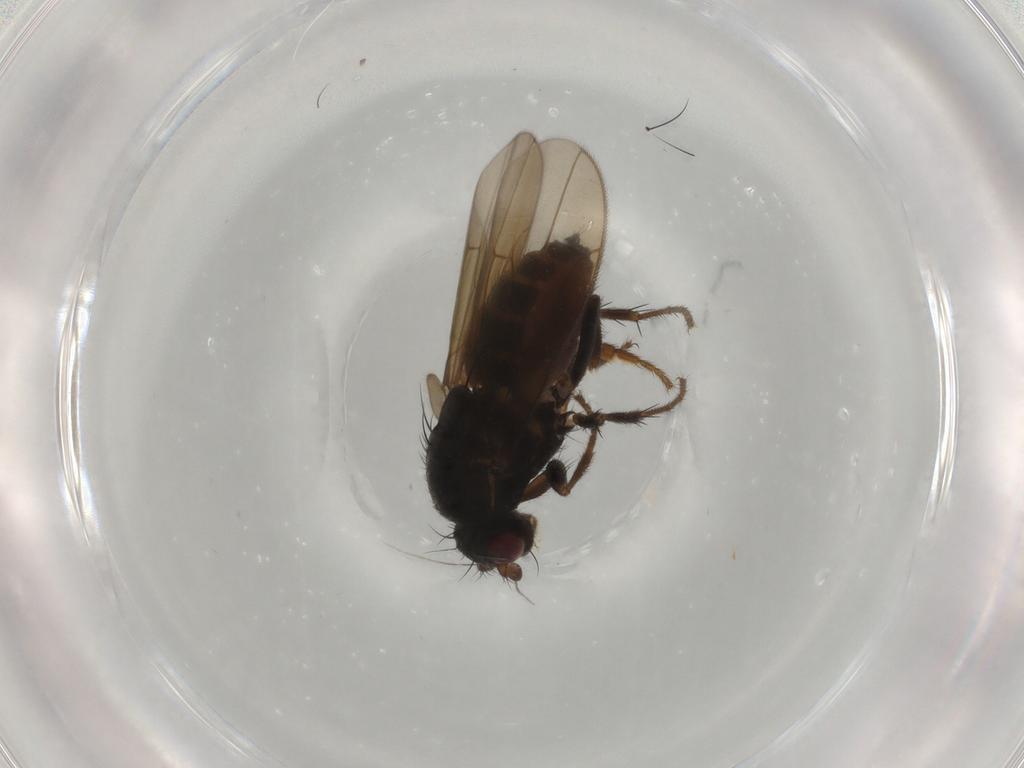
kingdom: Animalia
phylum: Arthropoda
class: Insecta
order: Diptera
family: Sphaeroceridae
